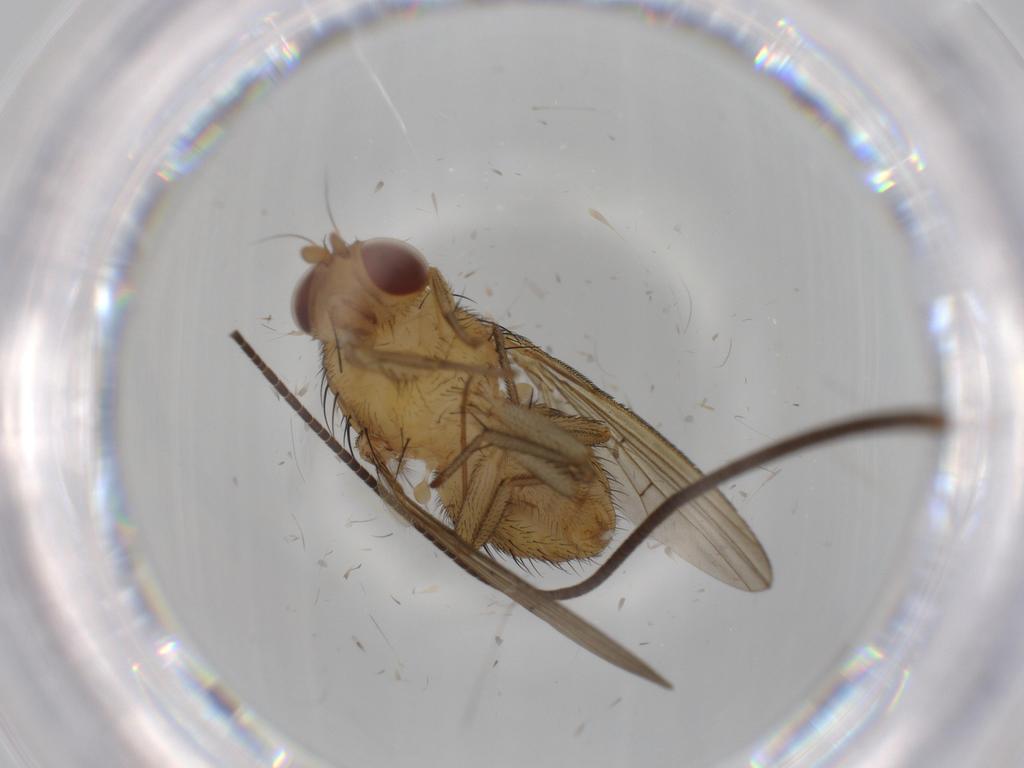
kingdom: Animalia
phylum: Arthropoda
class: Insecta
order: Diptera
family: Chironomidae
